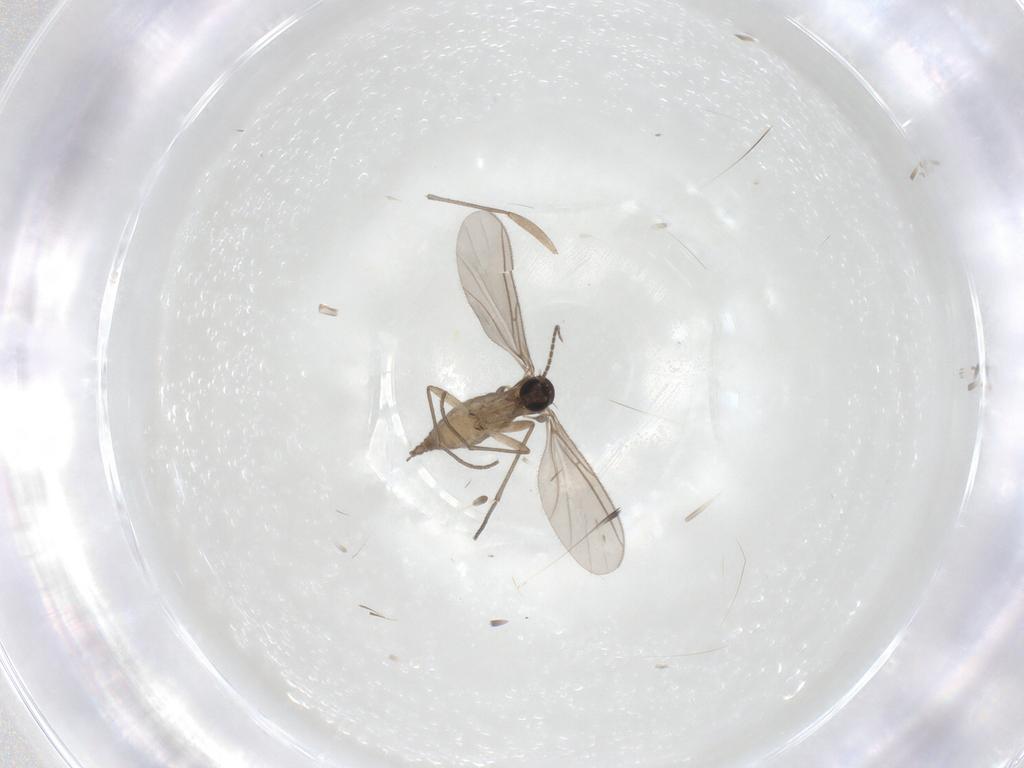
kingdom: Animalia
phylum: Arthropoda
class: Insecta
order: Diptera
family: Sciaridae
